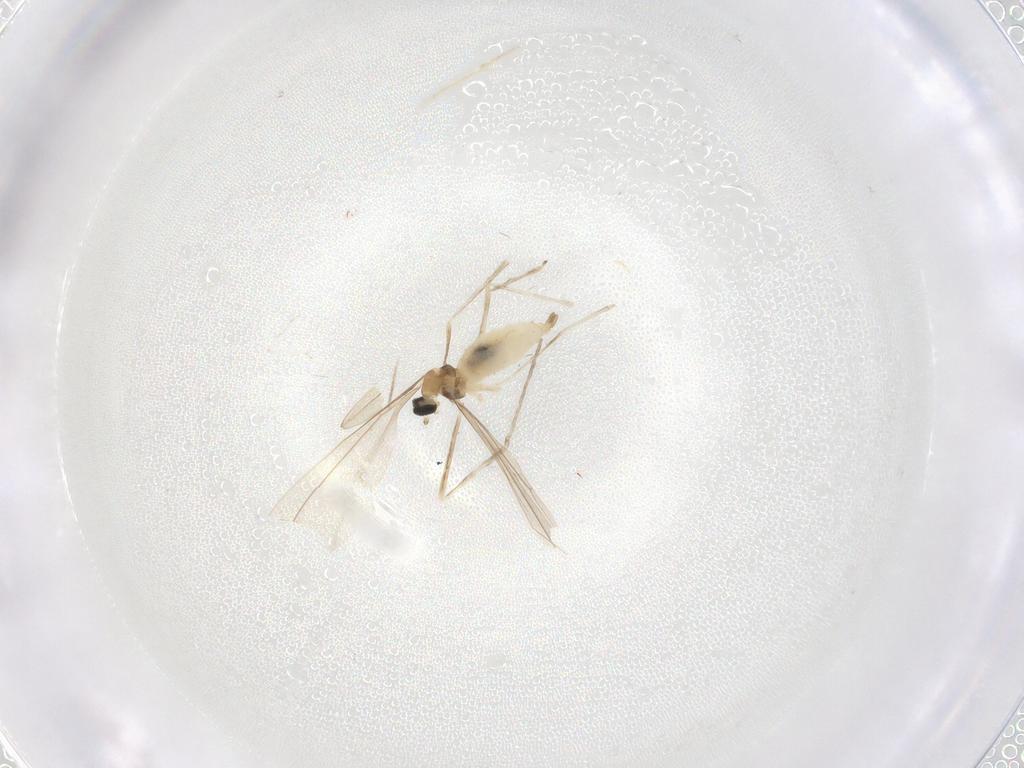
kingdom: Animalia
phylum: Arthropoda
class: Insecta
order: Diptera
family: Cecidomyiidae
